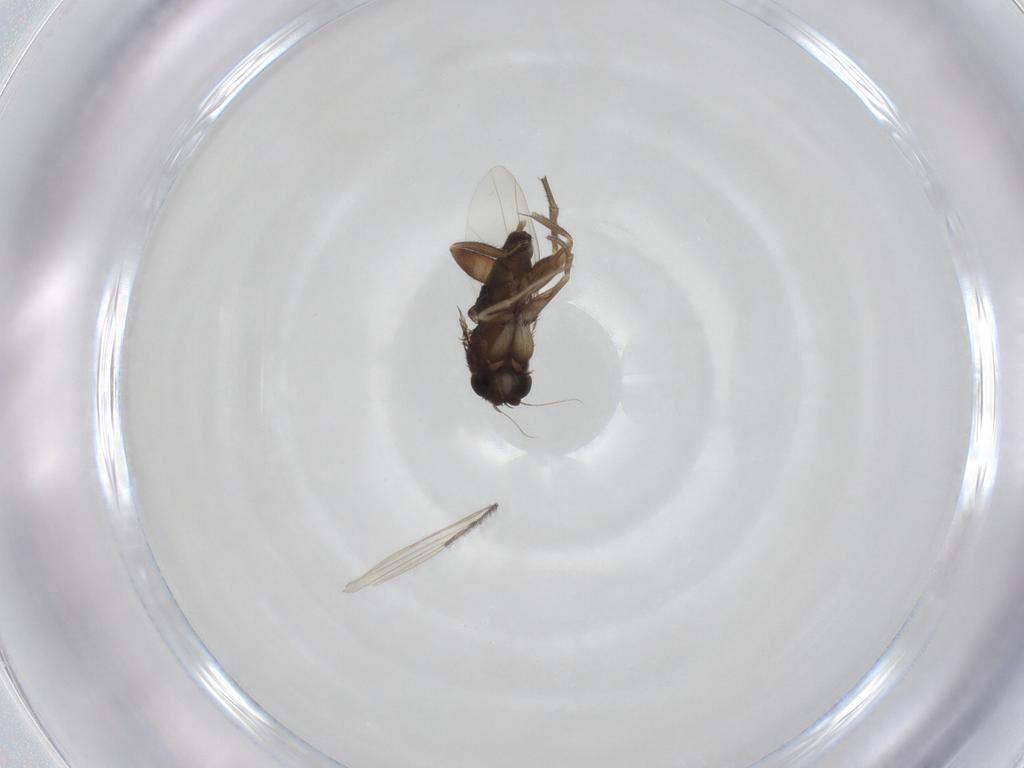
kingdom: Animalia
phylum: Arthropoda
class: Insecta
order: Diptera
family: Phoridae
